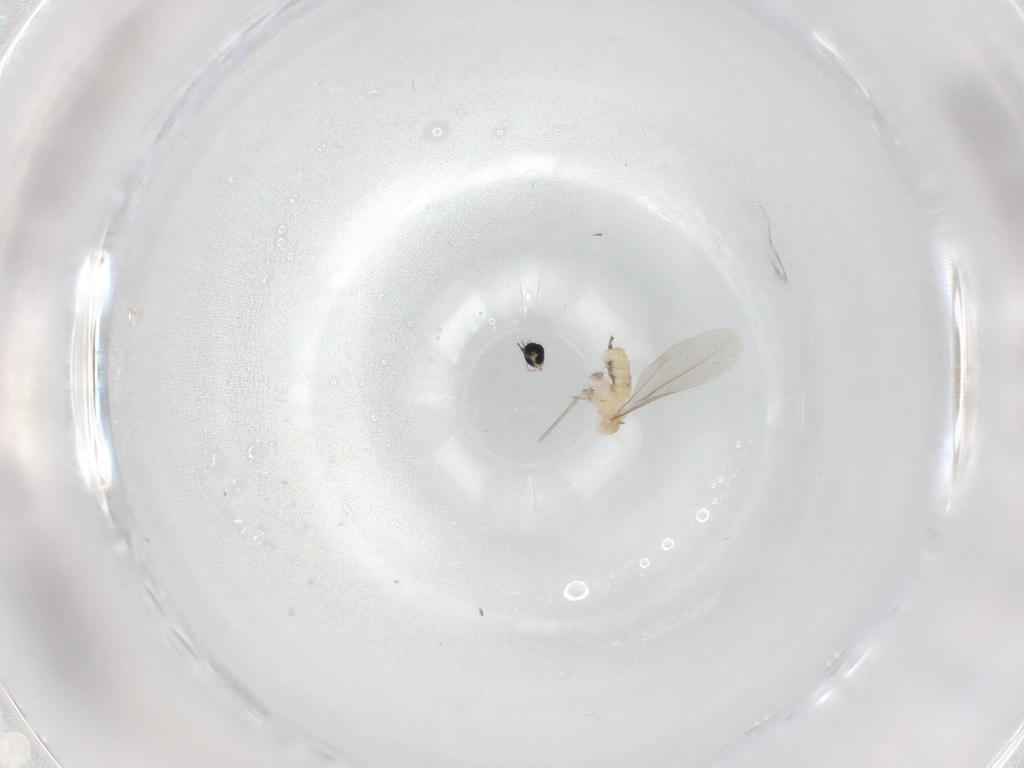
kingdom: Animalia
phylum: Arthropoda
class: Insecta
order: Diptera
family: Cecidomyiidae
